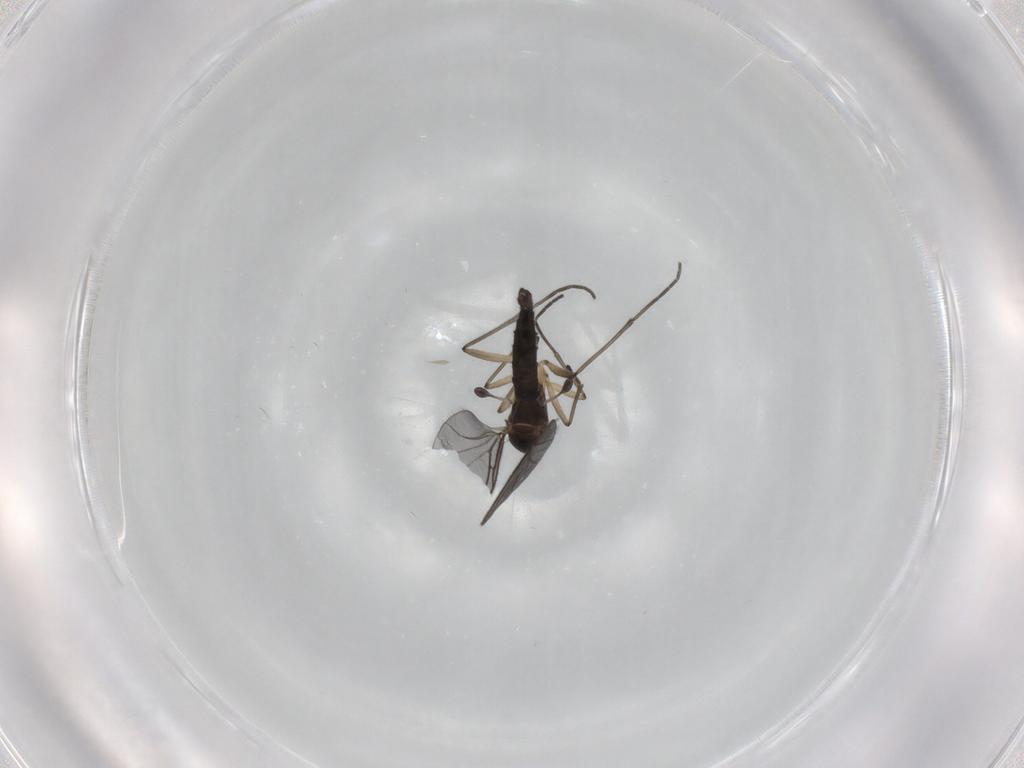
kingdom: Animalia
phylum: Arthropoda
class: Insecta
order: Diptera
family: Sciaridae
